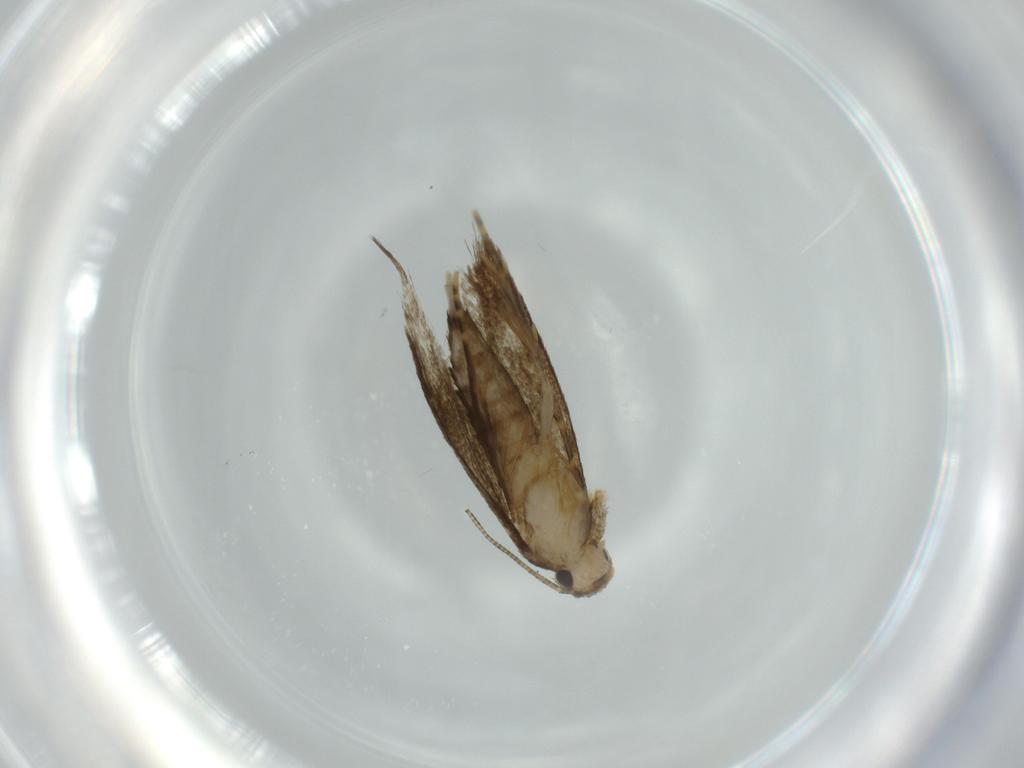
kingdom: Animalia
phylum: Arthropoda
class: Insecta
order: Lepidoptera
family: Tineidae
